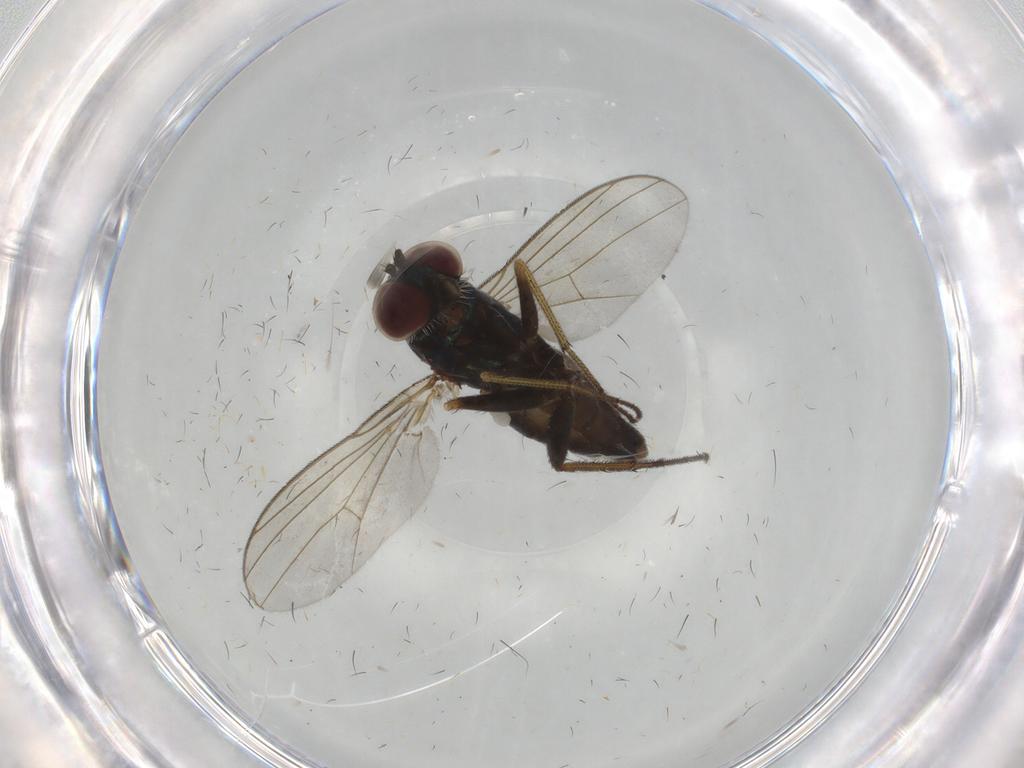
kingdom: Animalia
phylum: Arthropoda
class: Insecta
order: Diptera
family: Dolichopodidae
